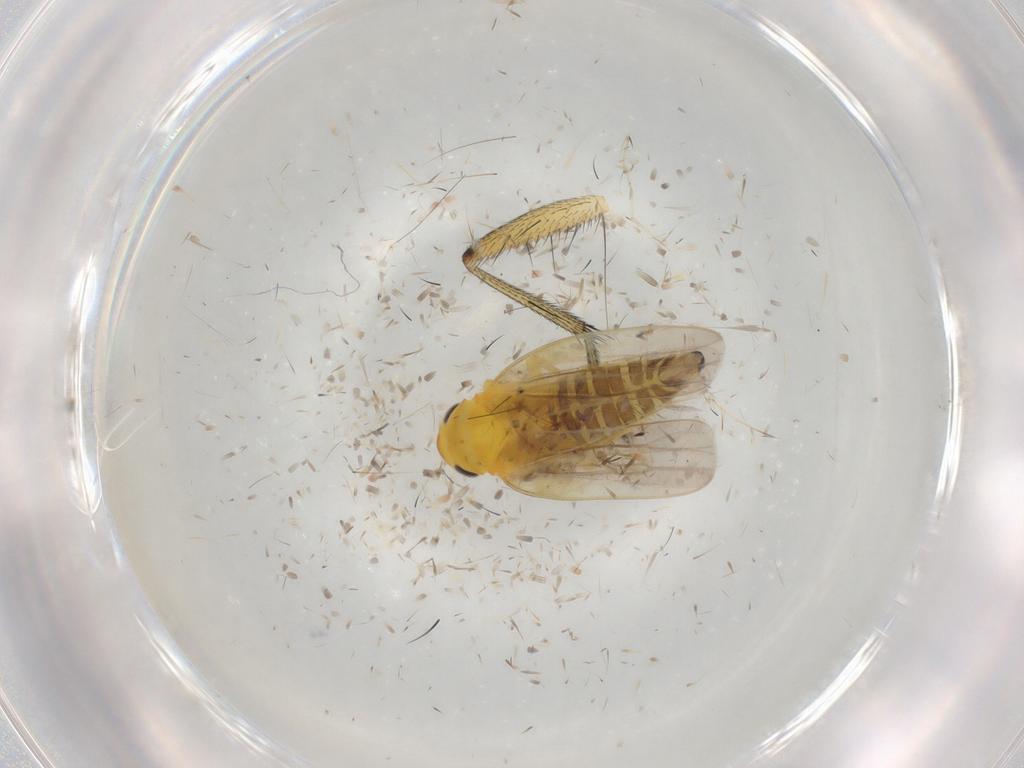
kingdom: Animalia
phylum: Arthropoda
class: Insecta
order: Hemiptera
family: Cicadellidae
